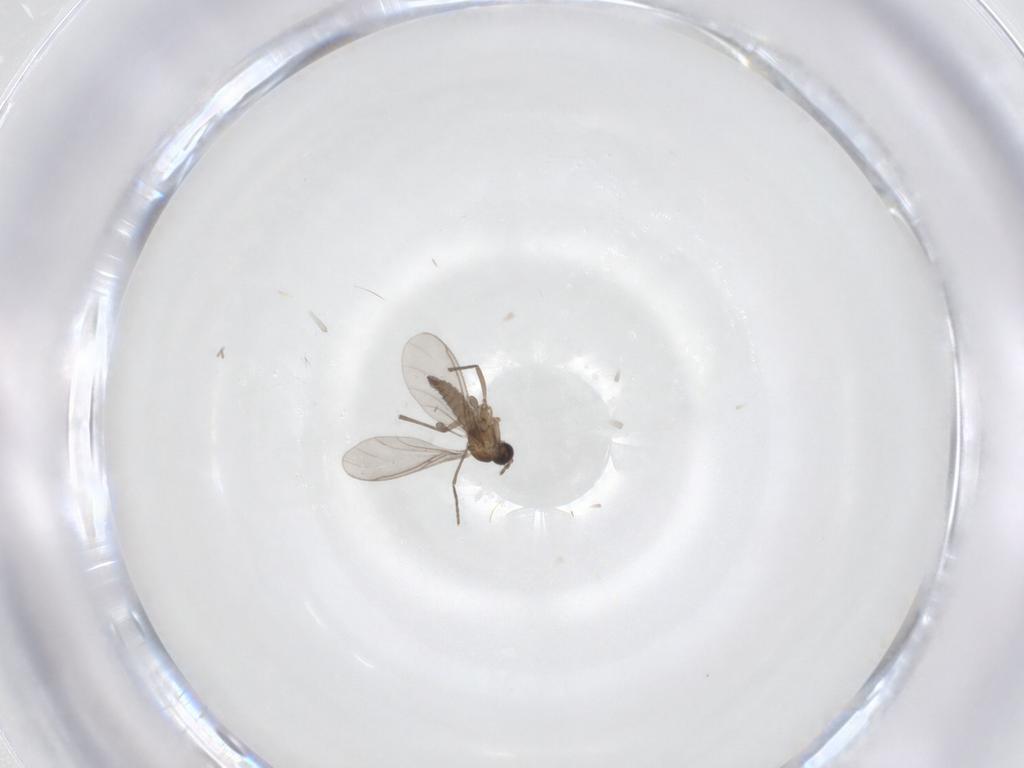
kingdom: Animalia
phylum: Arthropoda
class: Insecta
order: Diptera
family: Sciaridae
